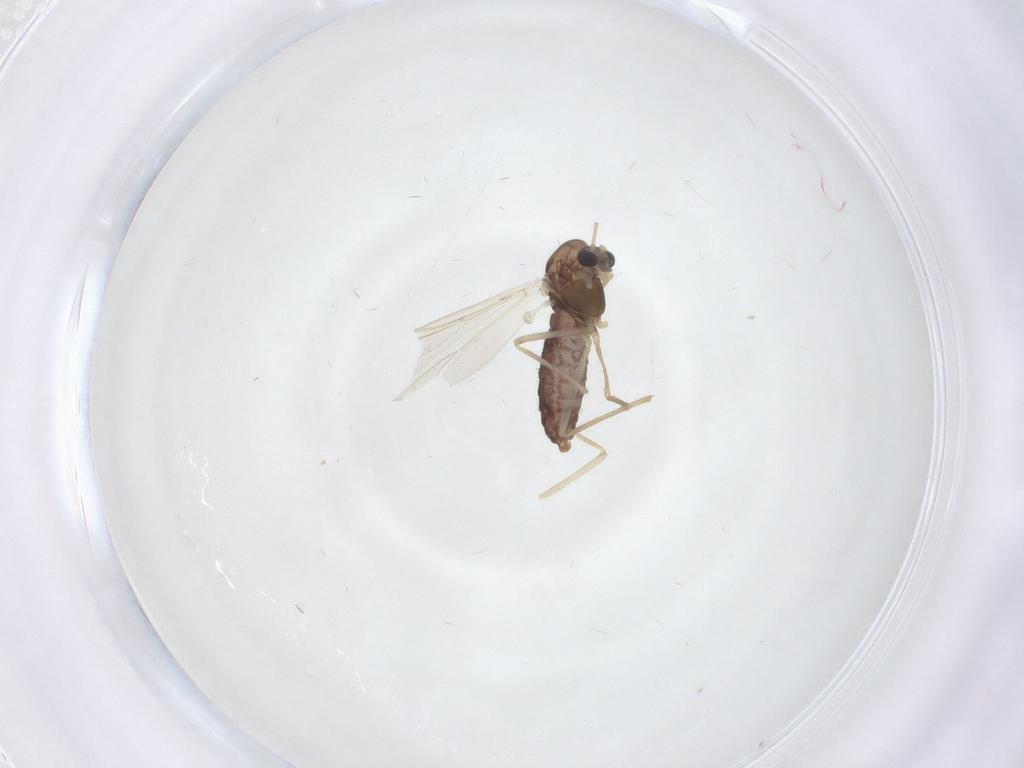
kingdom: Animalia
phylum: Arthropoda
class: Insecta
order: Diptera
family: Chironomidae
